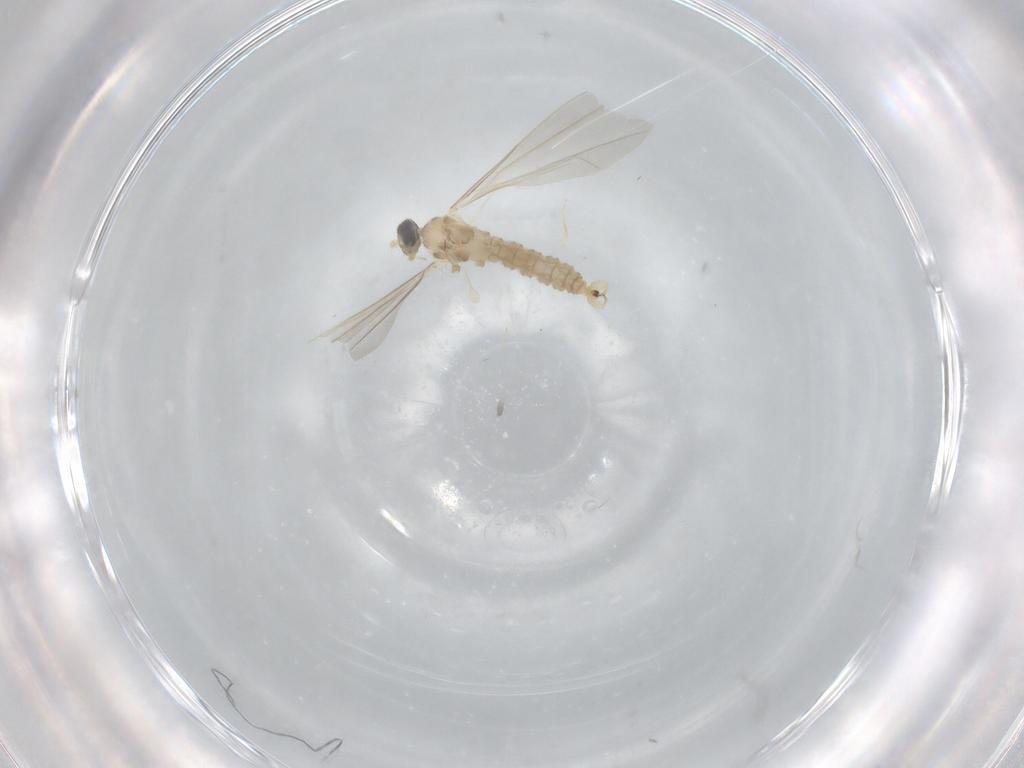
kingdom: Animalia
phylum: Arthropoda
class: Insecta
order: Diptera
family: Cecidomyiidae
